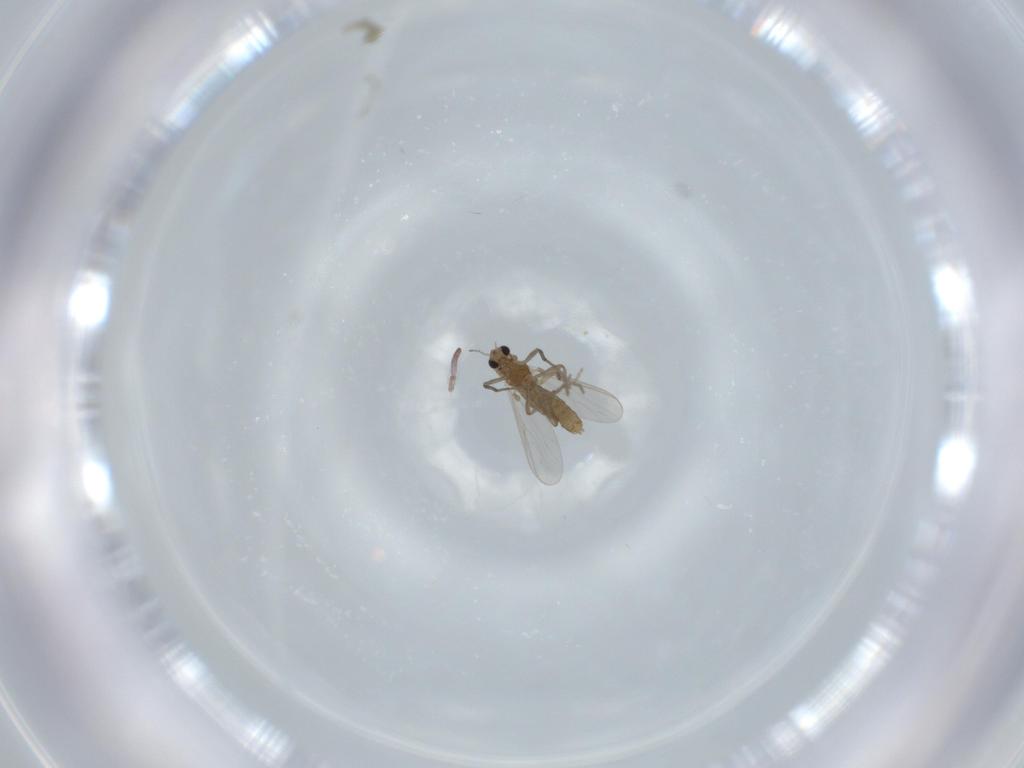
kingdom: Animalia
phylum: Arthropoda
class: Insecta
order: Diptera
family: Chironomidae
